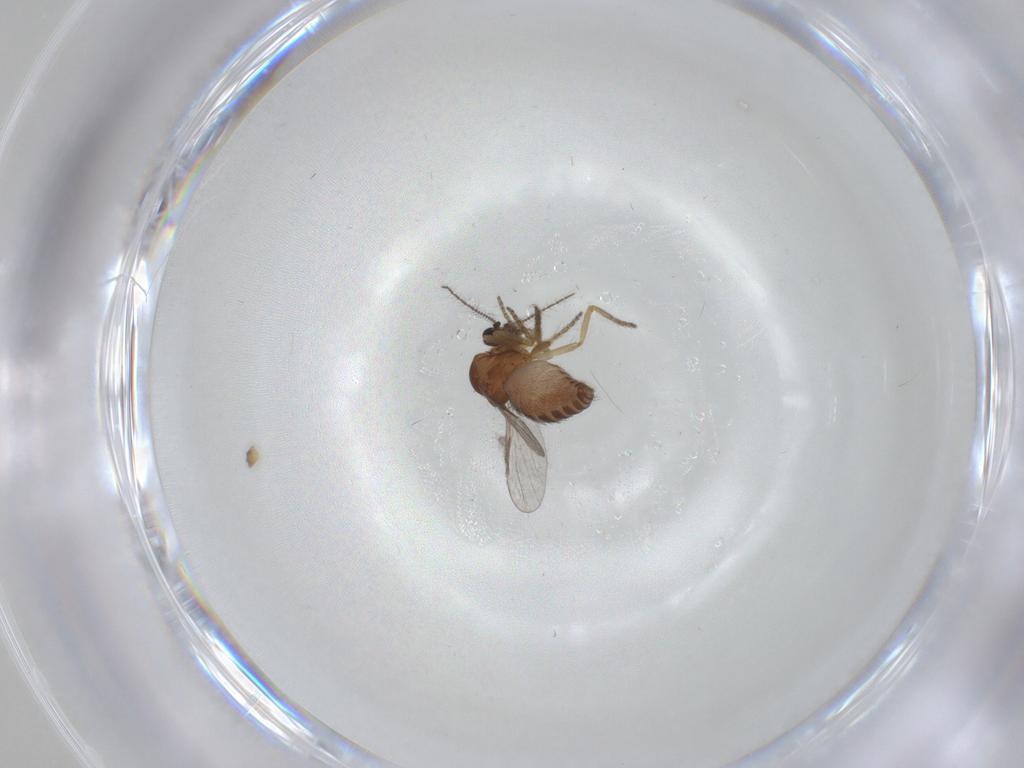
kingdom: Animalia
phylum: Arthropoda
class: Insecta
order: Diptera
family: Ceratopogonidae
